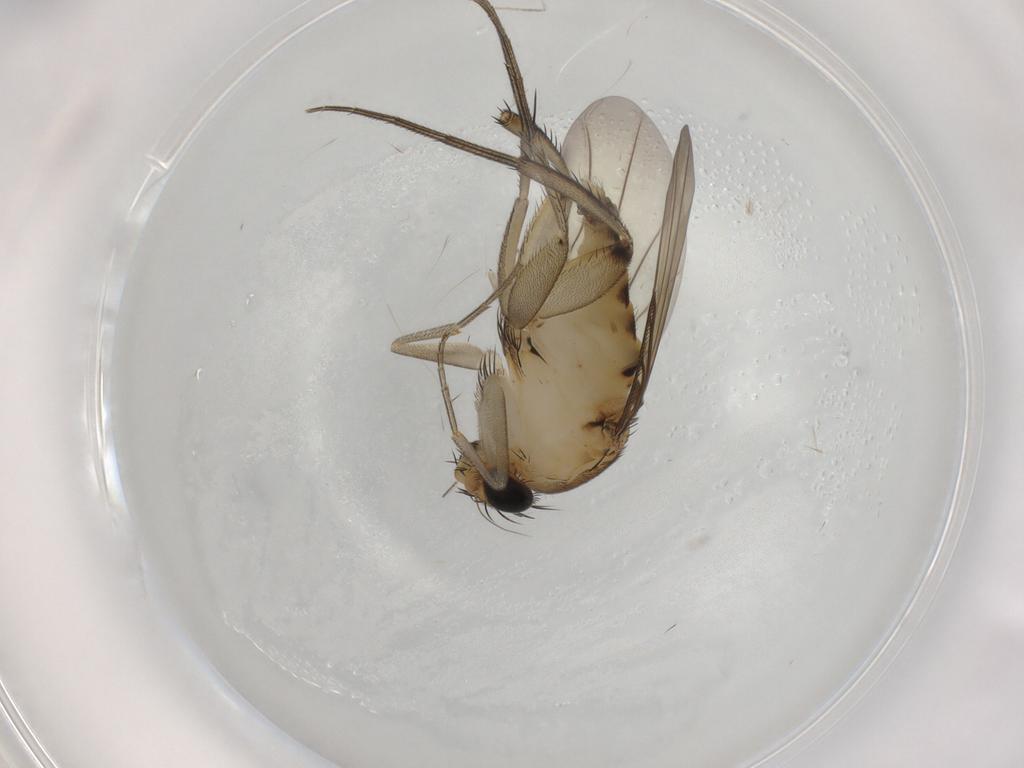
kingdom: Animalia
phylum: Arthropoda
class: Insecta
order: Diptera
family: Phoridae
